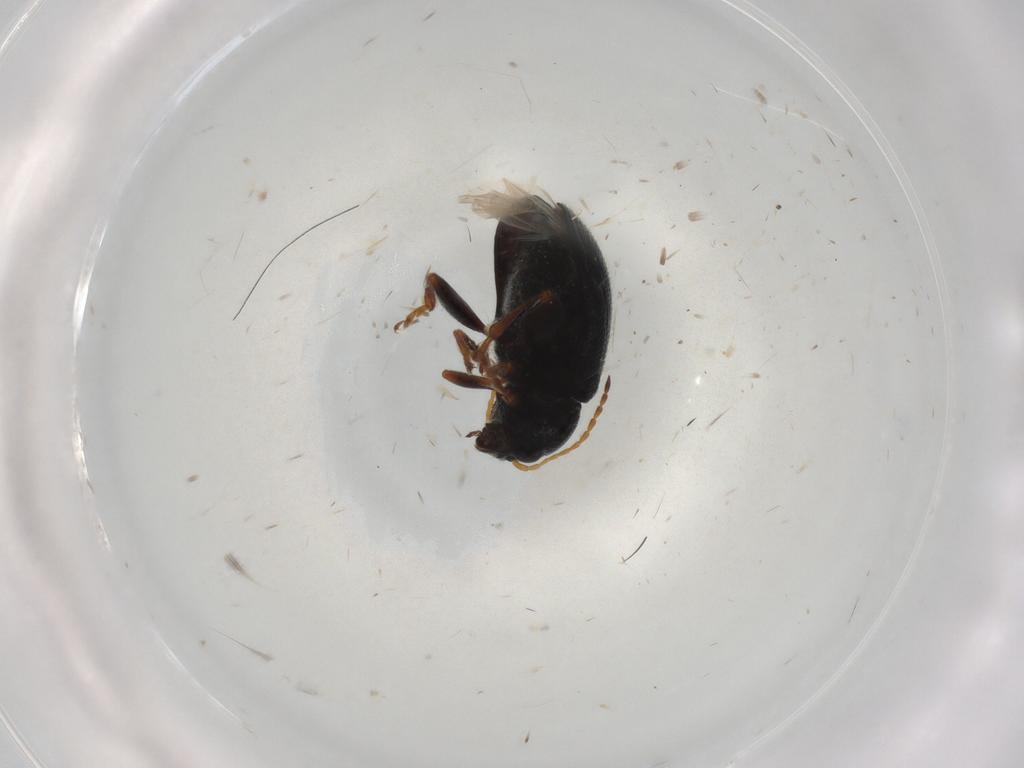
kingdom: Animalia
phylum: Arthropoda
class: Insecta
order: Coleoptera
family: Chrysomelidae
